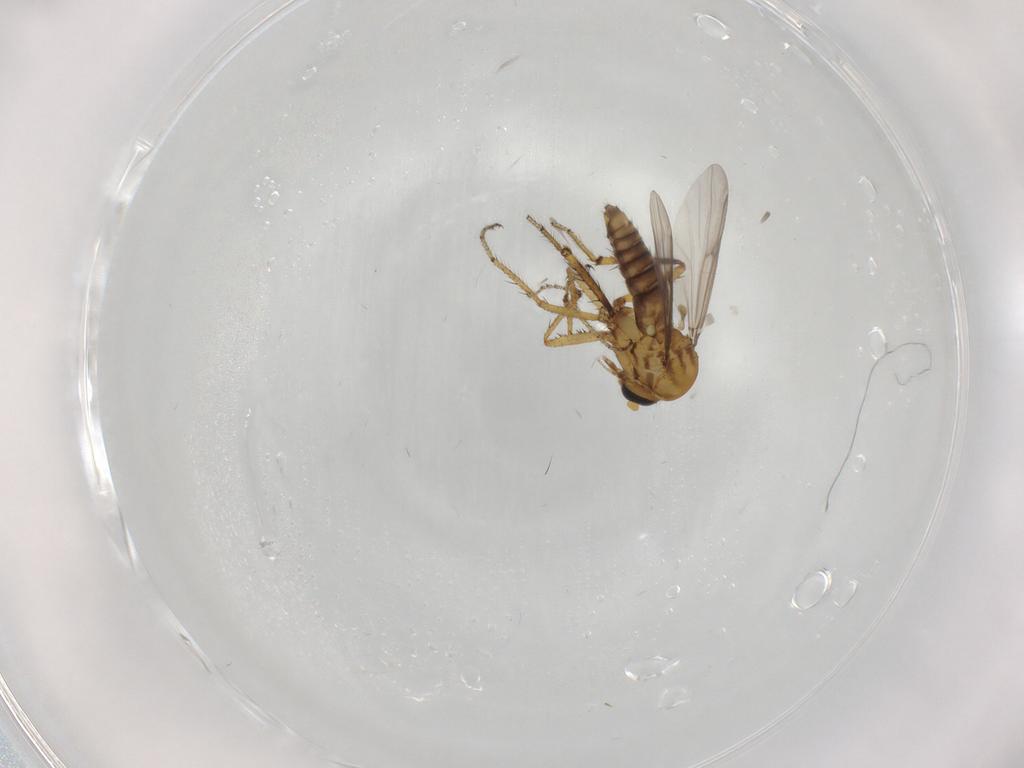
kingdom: Animalia
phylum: Arthropoda
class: Insecta
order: Diptera
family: Ceratopogonidae
